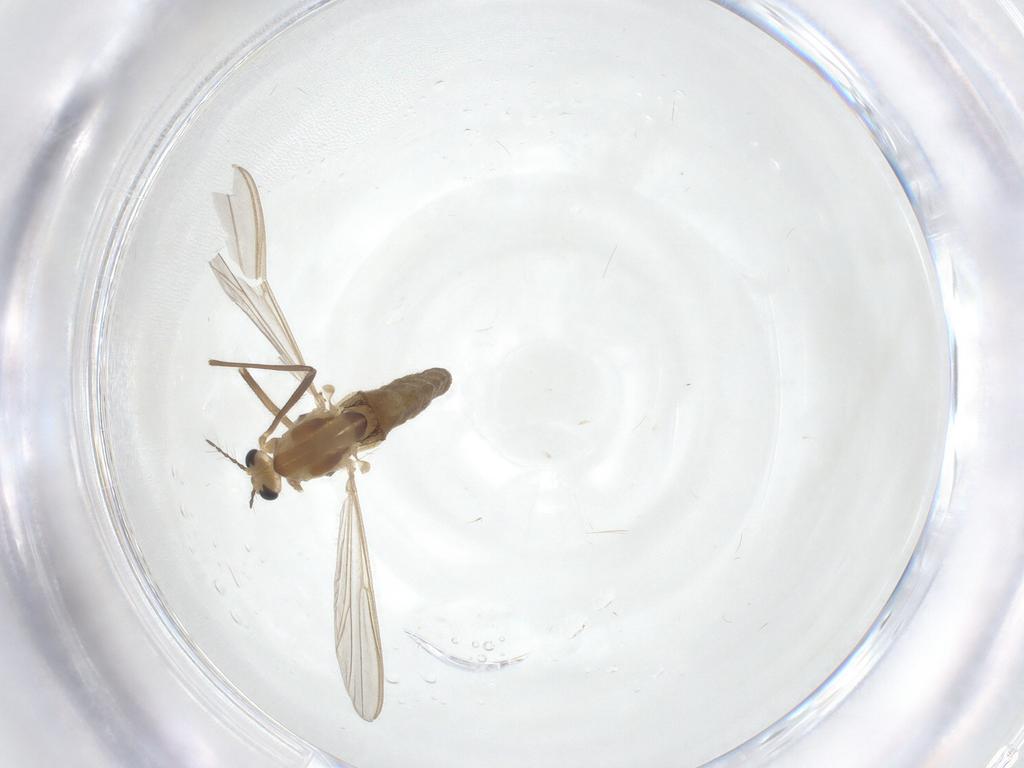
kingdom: Animalia
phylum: Arthropoda
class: Insecta
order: Diptera
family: Chironomidae
